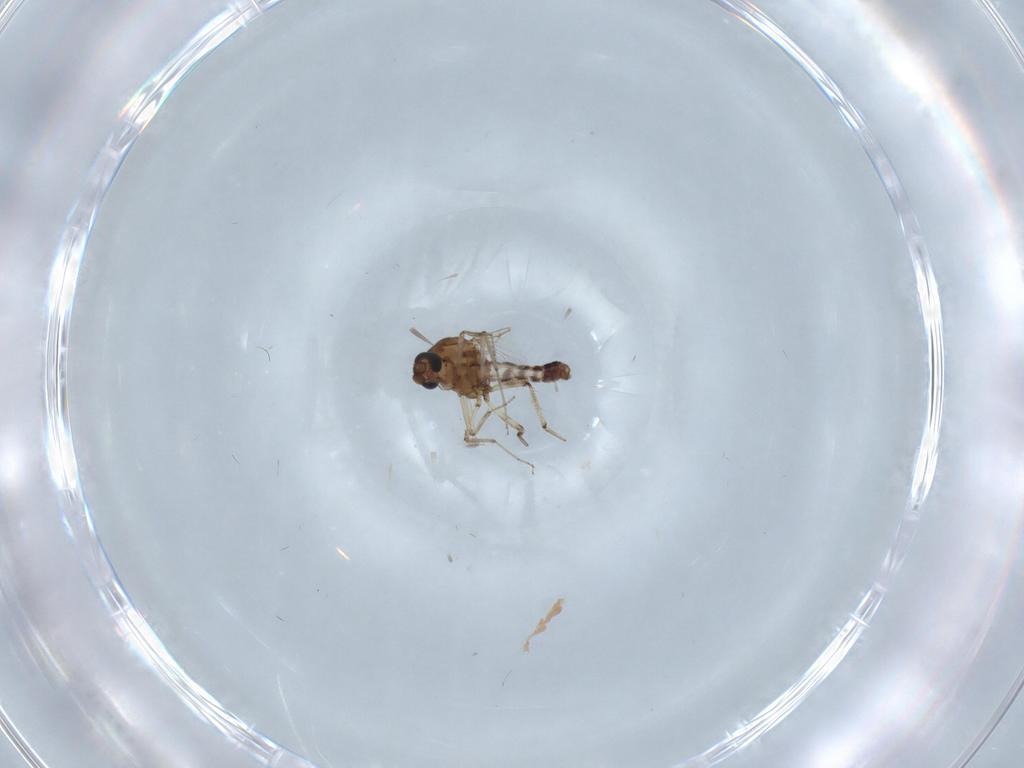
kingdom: Animalia
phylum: Arthropoda
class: Insecta
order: Diptera
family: Ceratopogonidae
